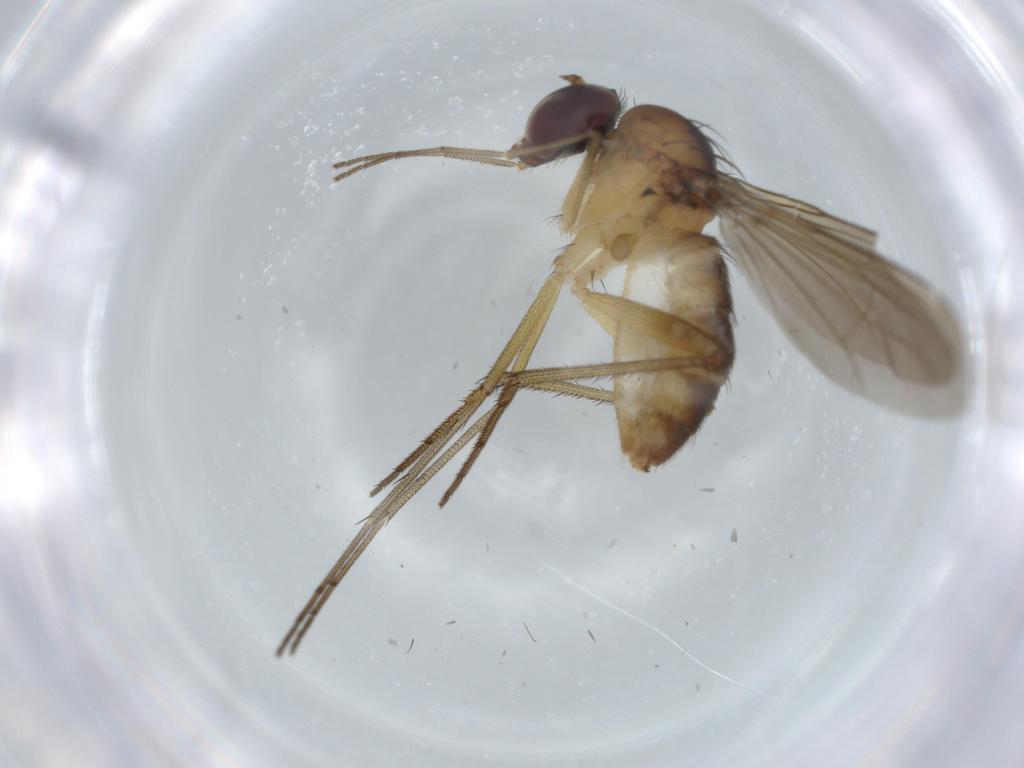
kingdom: Animalia
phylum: Arthropoda
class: Insecta
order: Diptera
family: Dolichopodidae
